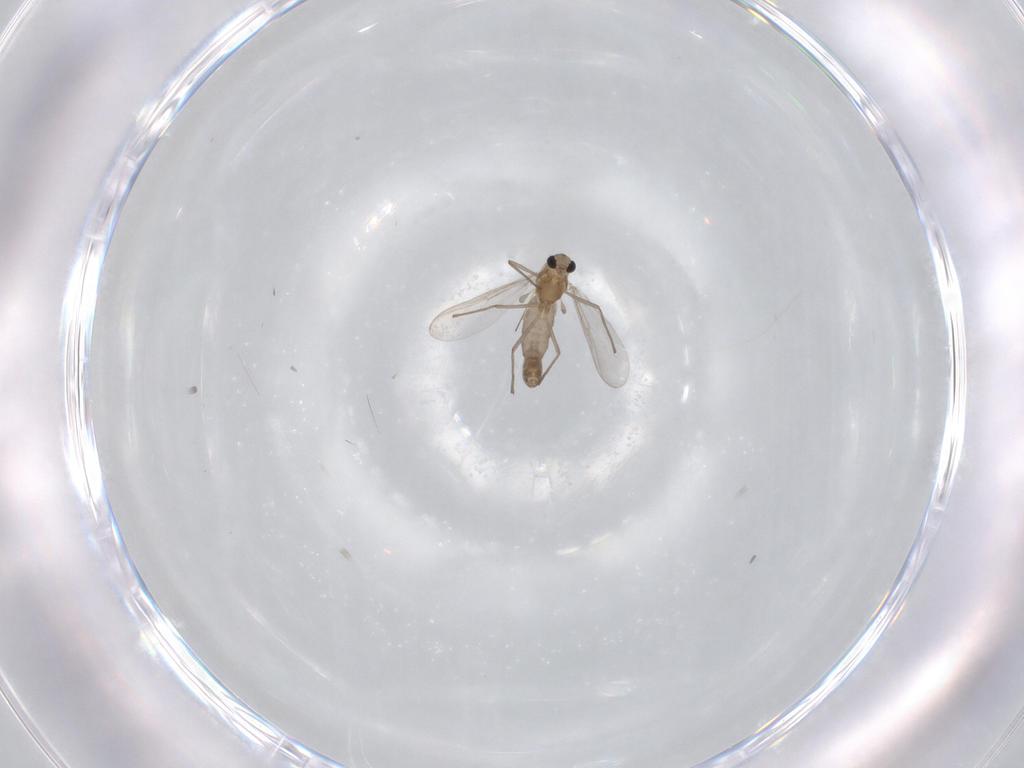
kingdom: Animalia
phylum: Arthropoda
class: Insecta
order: Diptera
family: Chironomidae
